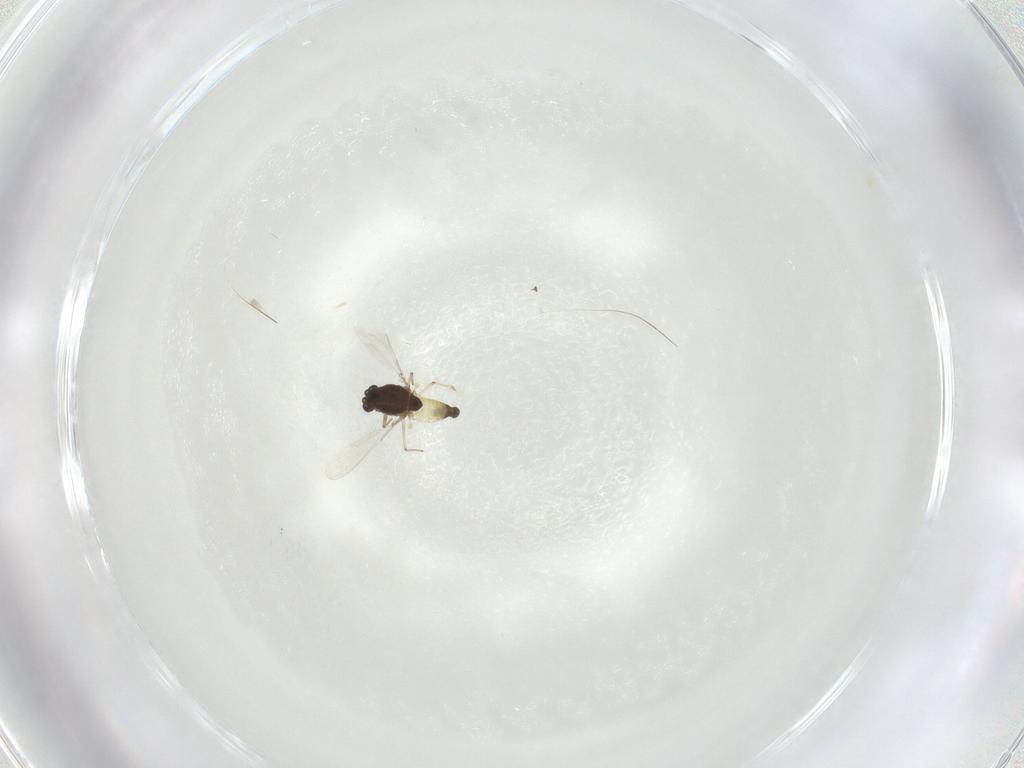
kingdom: Animalia
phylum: Arthropoda
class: Insecta
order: Diptera
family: Chironomidae
